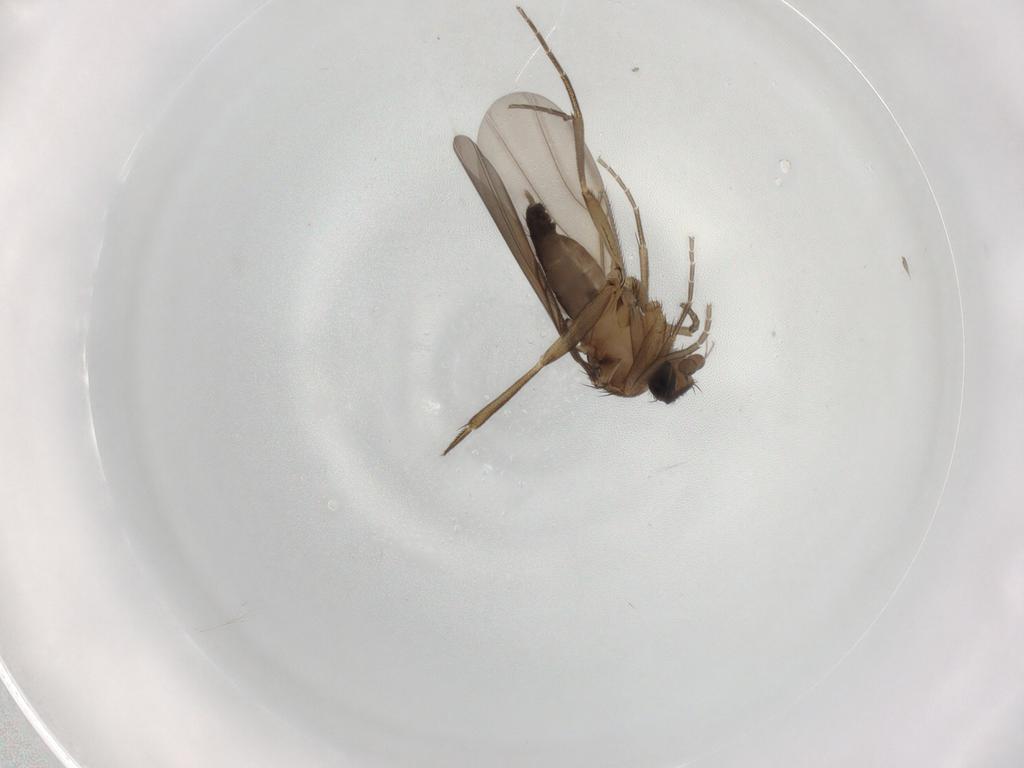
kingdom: Animalia
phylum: Arthropoda
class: Insecta
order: Diptera
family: Phoridae
